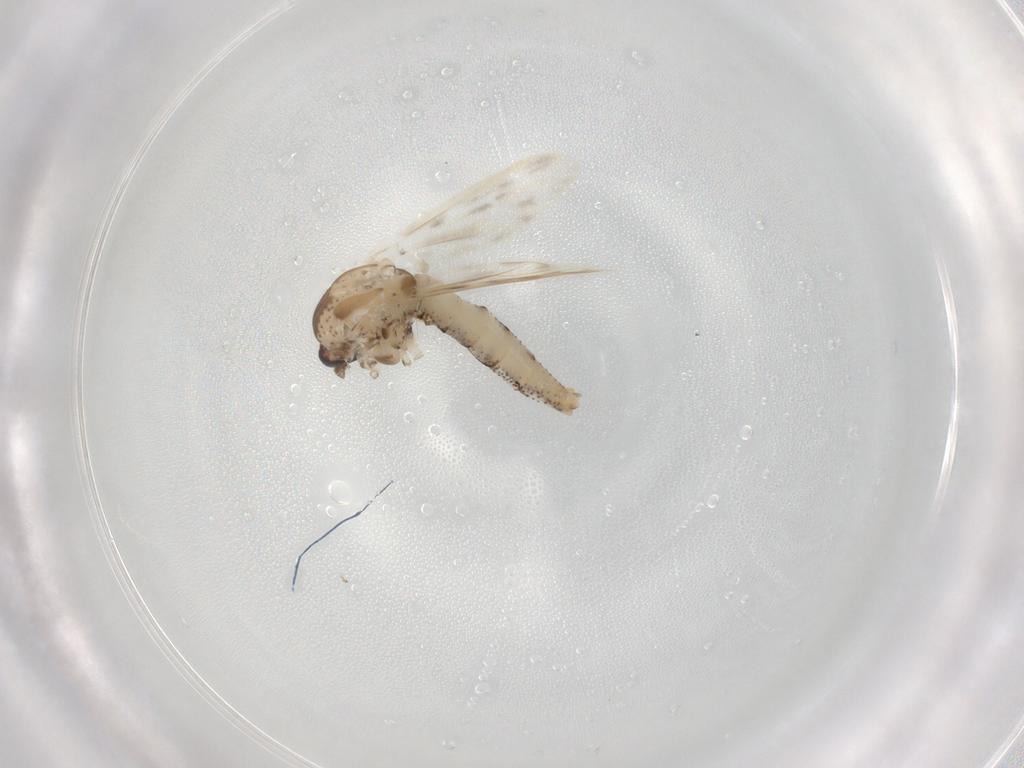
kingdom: Animalia
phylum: Arthropoda
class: Insecta
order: Diptera
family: Chaoboridae
